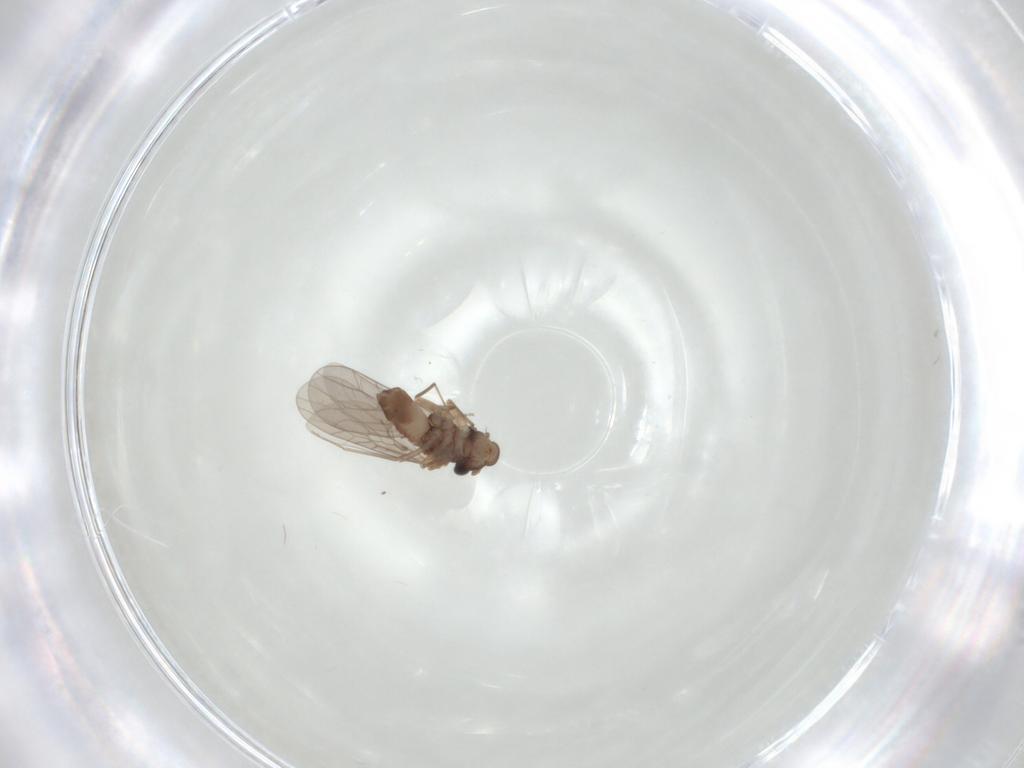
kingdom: Animalia
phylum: Arthropoda
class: Insecta
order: Psocodea
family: Lepidopsocidae
